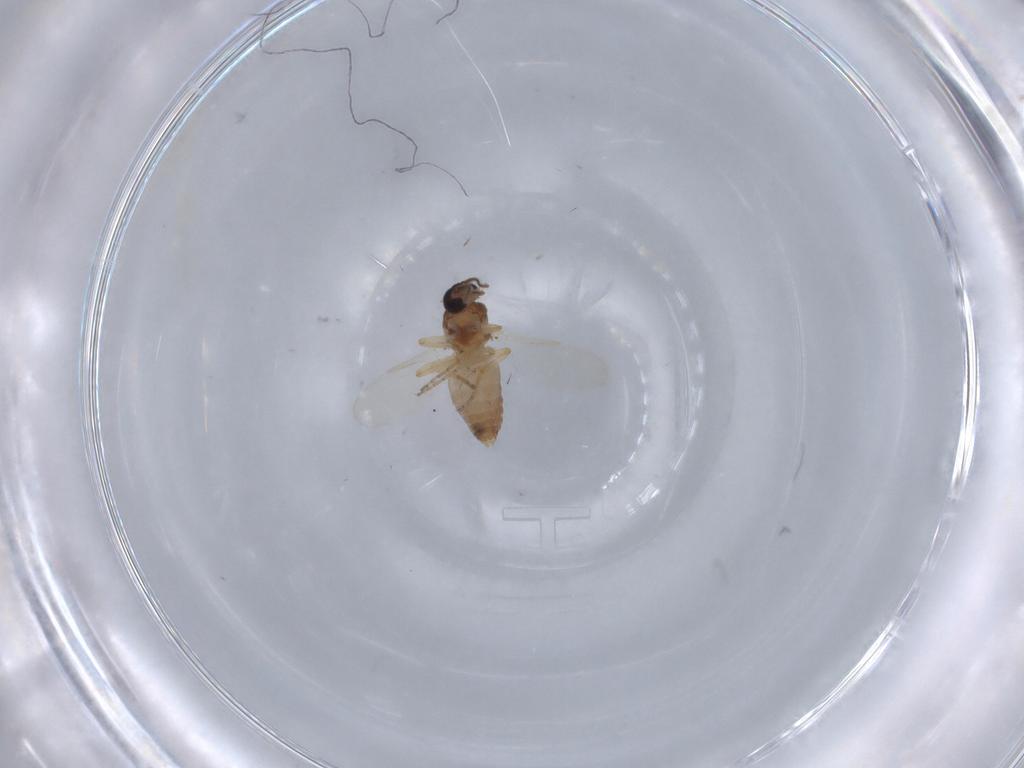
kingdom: Animalia
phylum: Arthropoda
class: Insecta
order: Diptera
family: Ceratopogonidae
